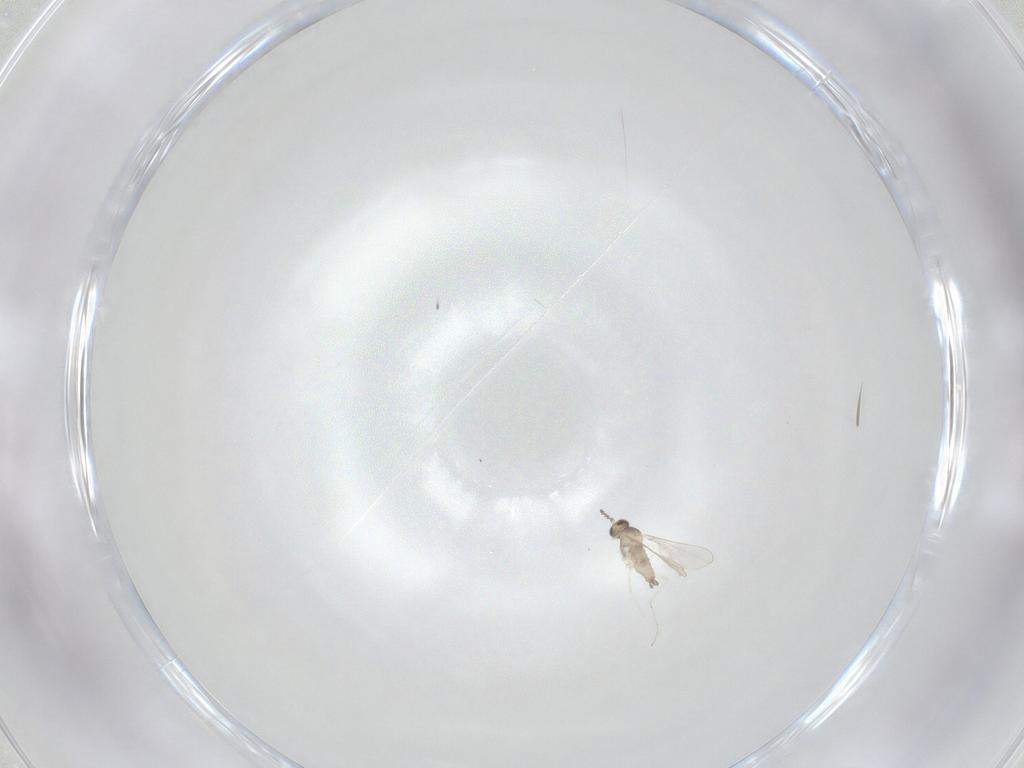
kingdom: Animalia
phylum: Arthropoda
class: Insecta
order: Diptera
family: Cecidomyiidae
